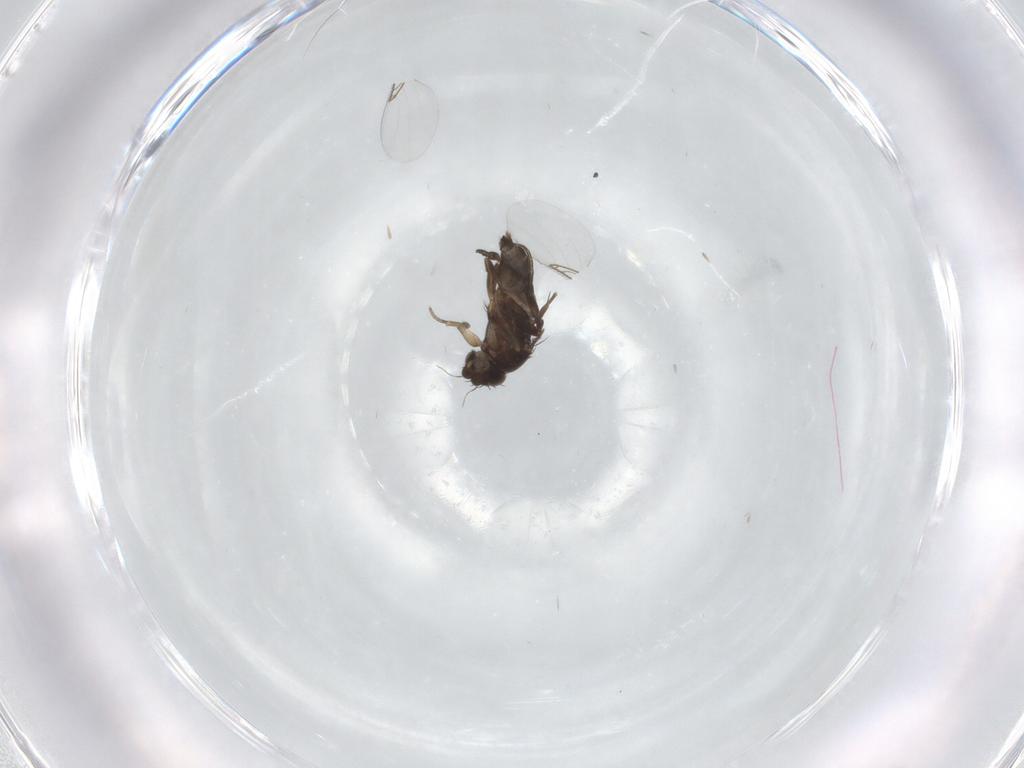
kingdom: Animalia
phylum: Arthropoda
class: Insecta
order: Diptera
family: Phoridae
